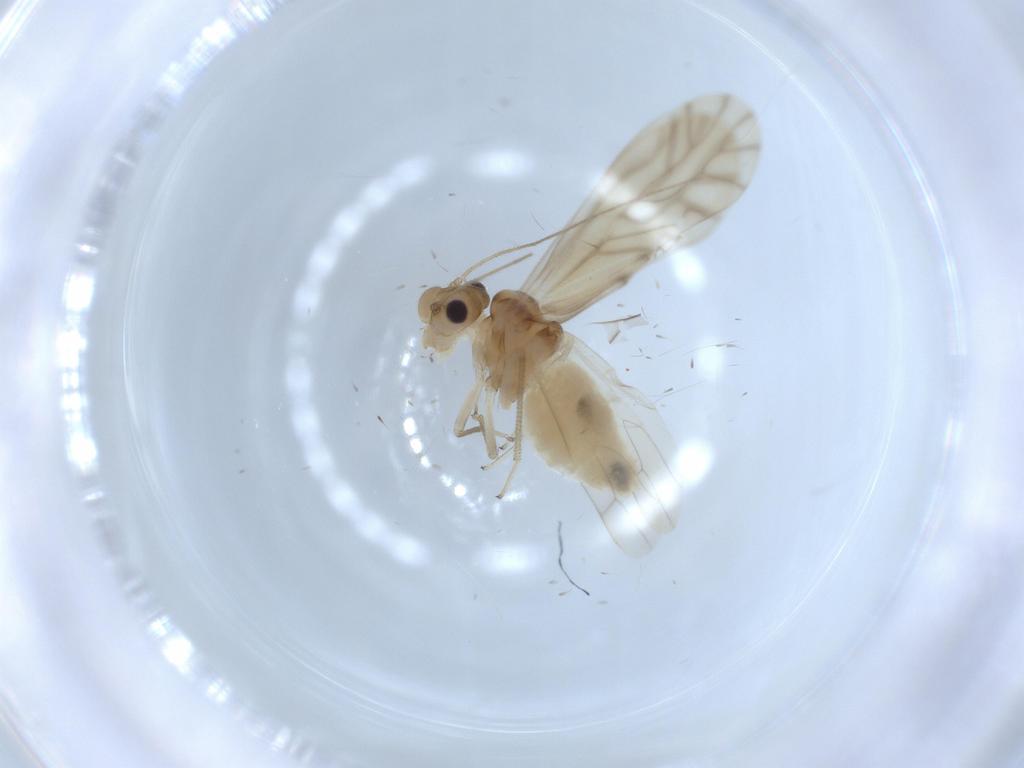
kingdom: Animalia
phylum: Arthropoda
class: Insecta
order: Psocodea
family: Caeciliusidae
